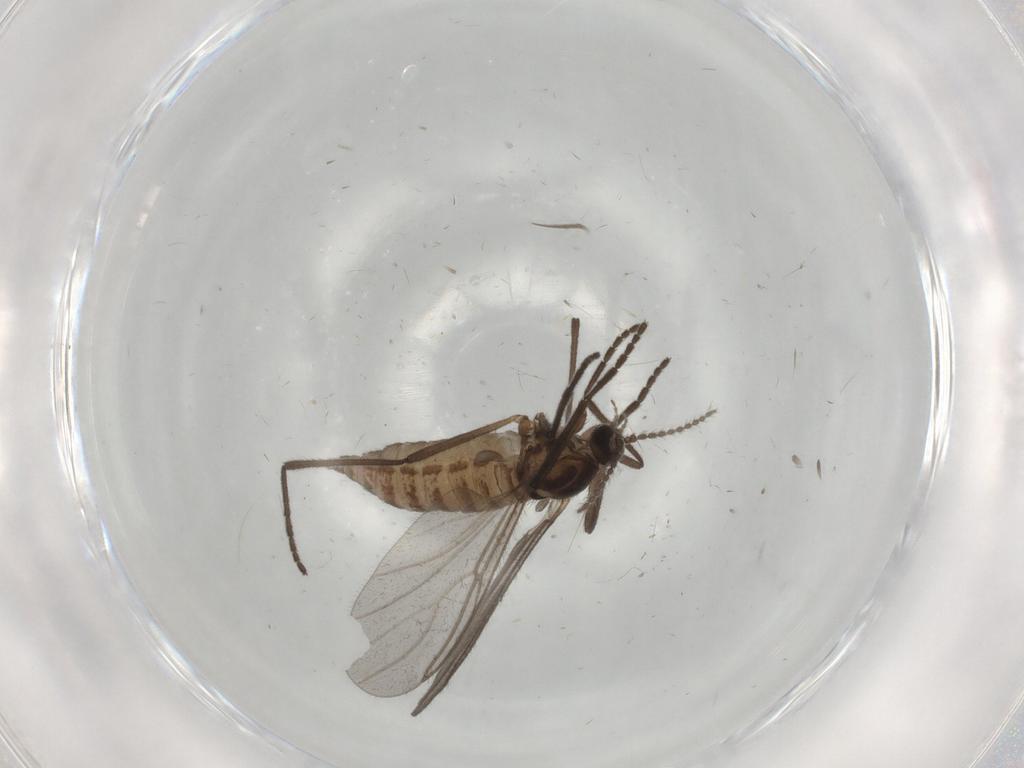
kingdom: Animalia
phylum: Arthropoda
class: Insecta
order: Diptera
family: Cecidomyiidae
